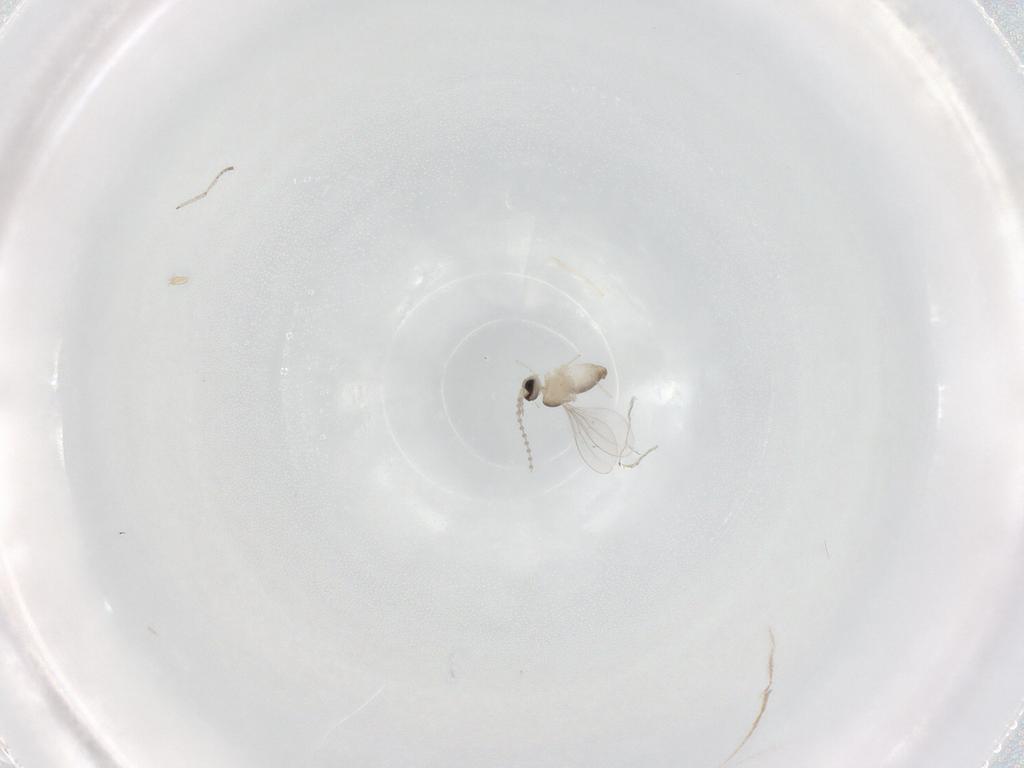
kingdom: Animalia
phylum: Arthropoda
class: Insecta
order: Diptera
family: Cecidomyiidae
